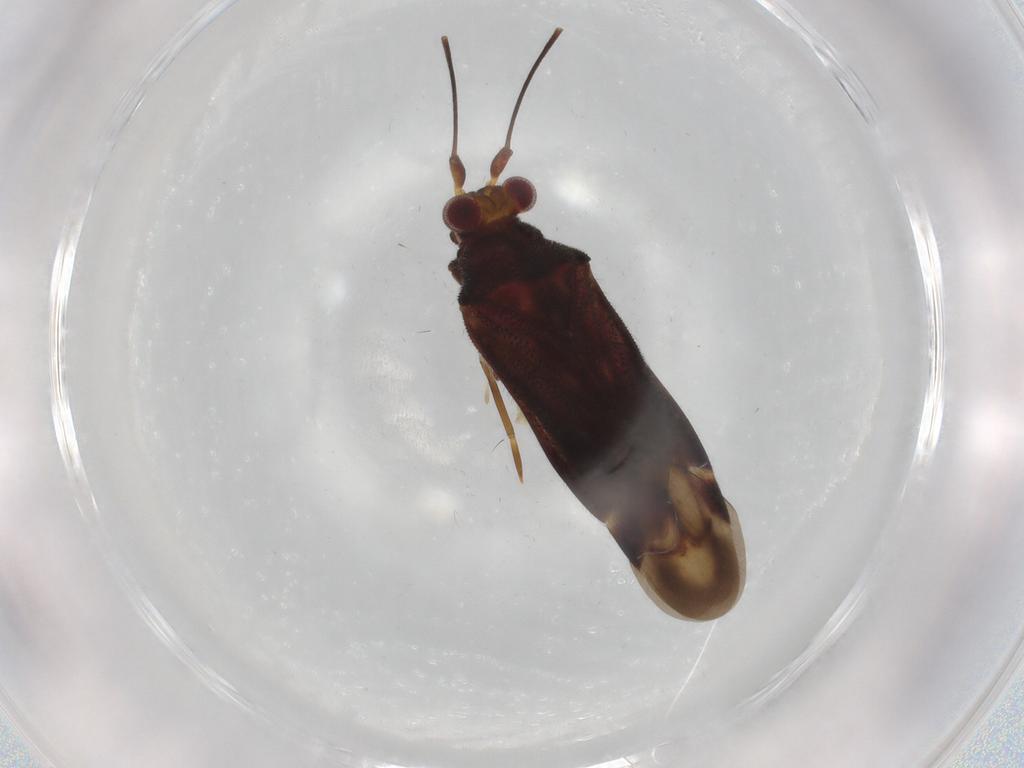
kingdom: Animalia
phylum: Arthropoda
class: Insecta
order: Hemiptera
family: Miridae
